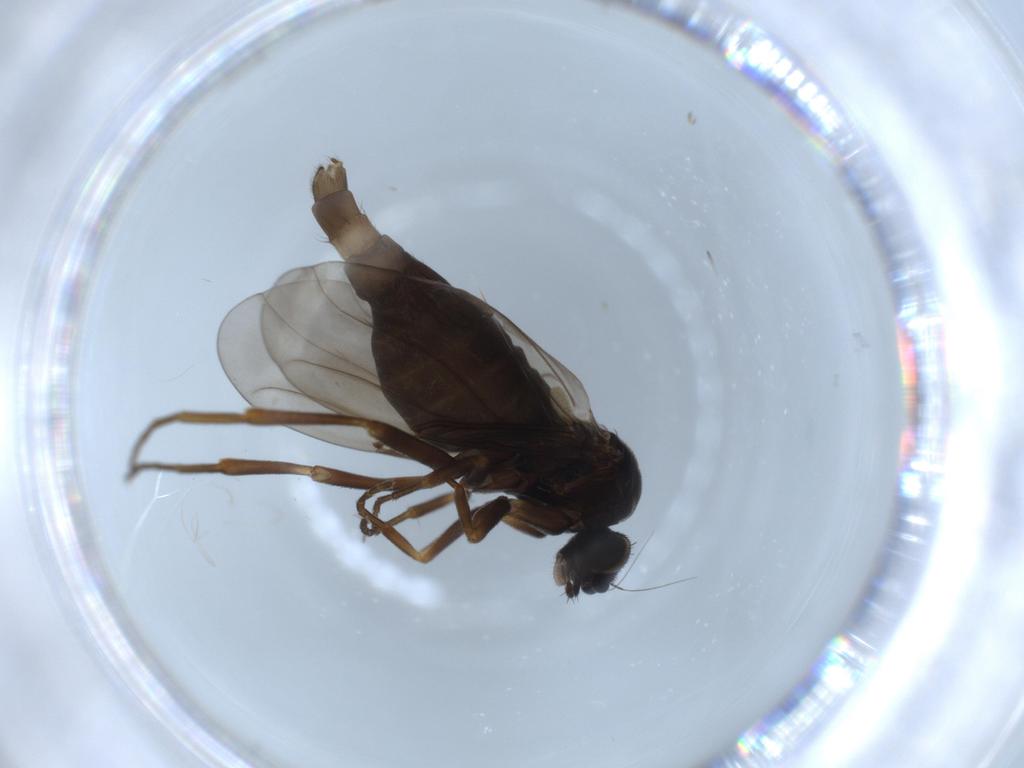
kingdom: Animalia
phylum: Arthropoda
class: Insecta
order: Diptera
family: Phoridae
